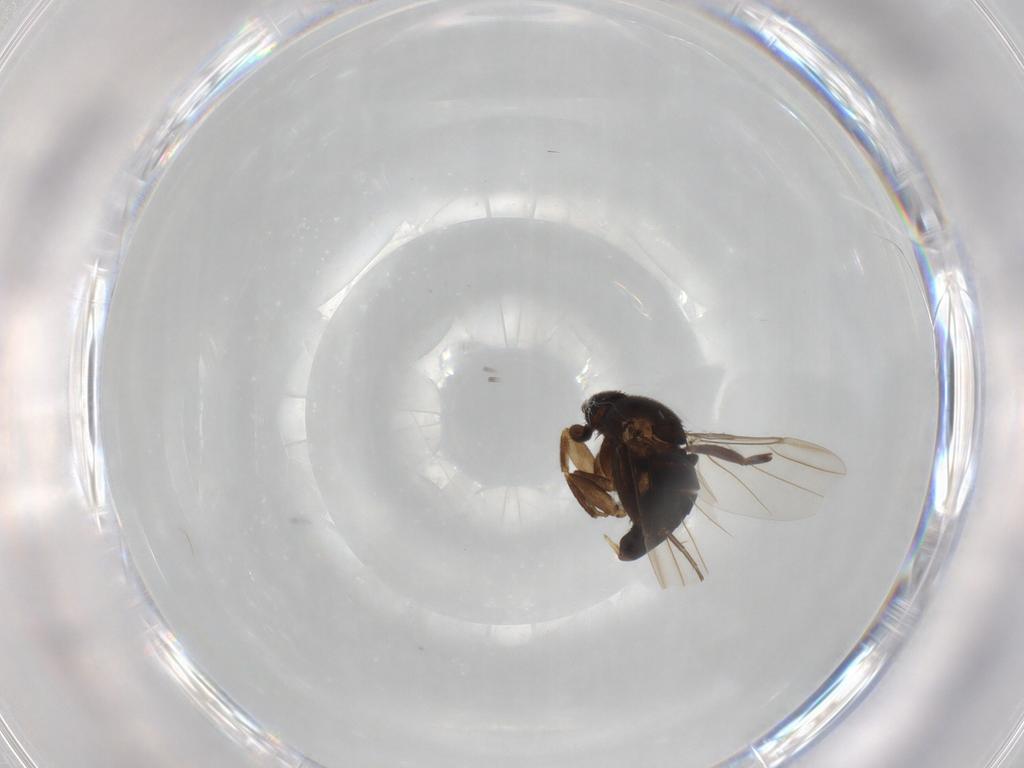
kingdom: Animalia
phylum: Arthropoda
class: Insecta
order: Diptera
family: Phoridae
